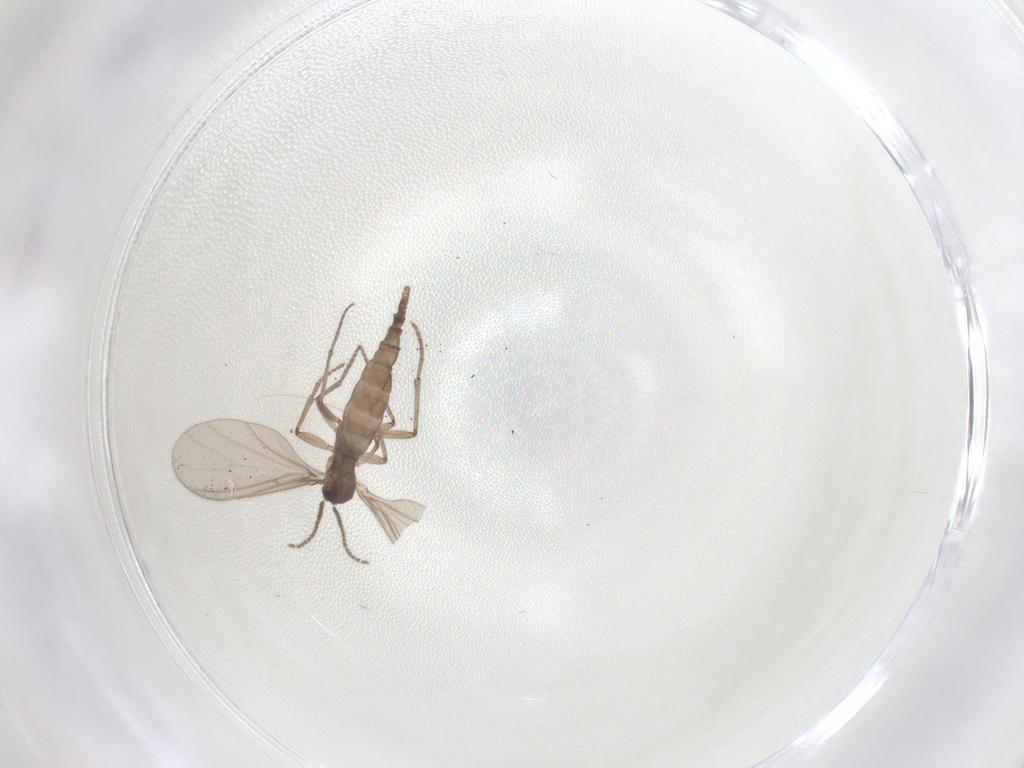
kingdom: Animalia
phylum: Arthropoda
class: Insecta
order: Diptera
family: Sciaridae
